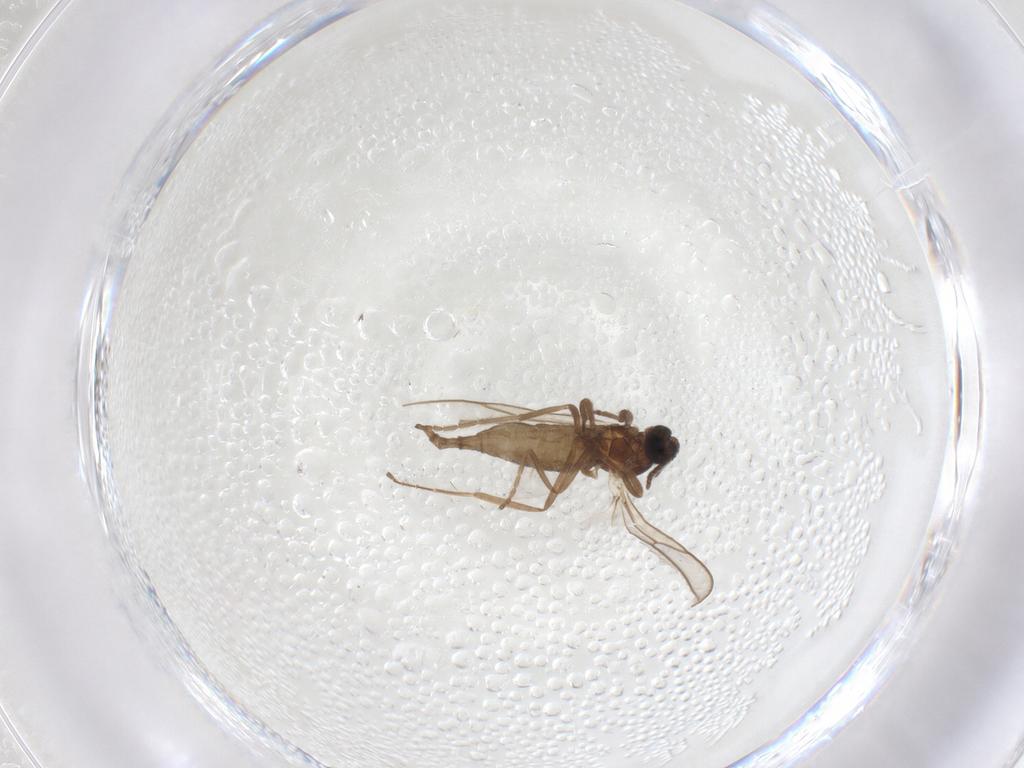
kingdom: Animalia
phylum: Arthropoda
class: Insecta
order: Diptera
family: Cecidomyiidae
